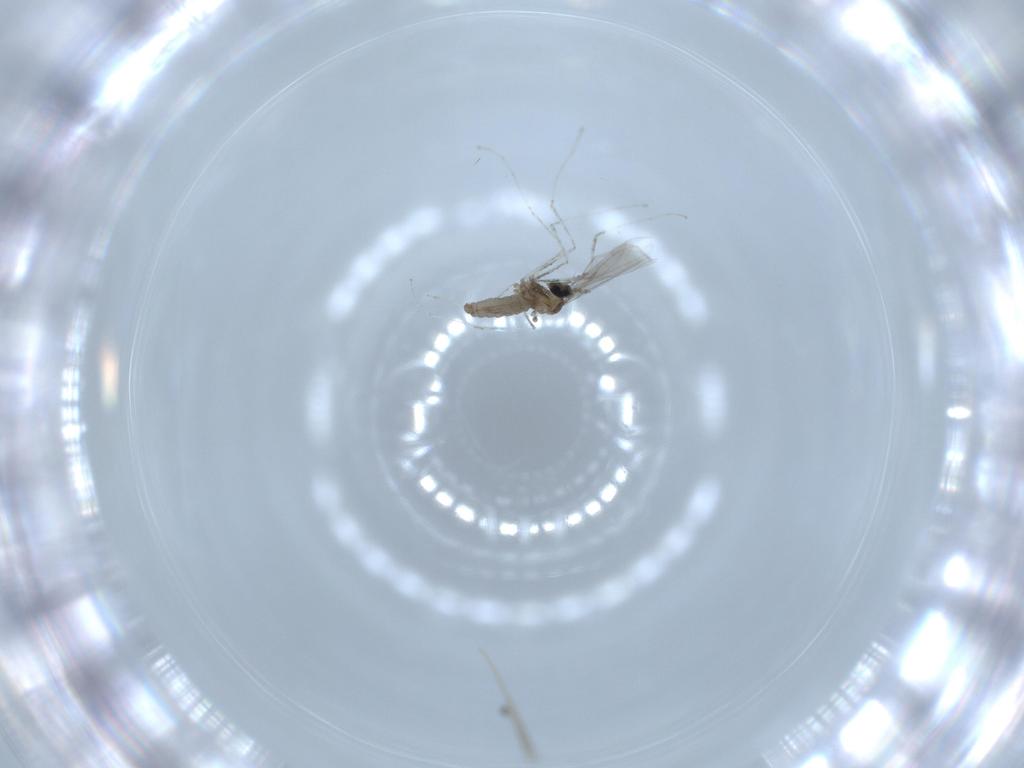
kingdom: Animalia
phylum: Arthropoda
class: Insecta
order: Diptera
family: Cecidomyiidae
